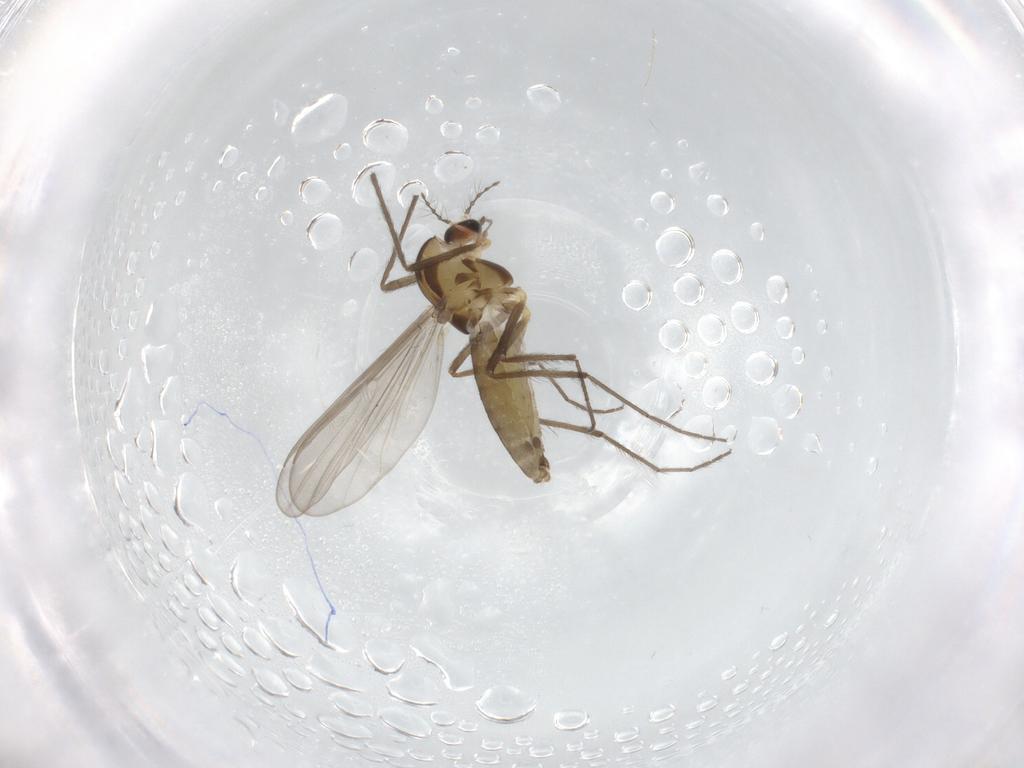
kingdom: Animalia
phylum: Arthropoda
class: Insecta
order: Diptera
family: Chironomidae
